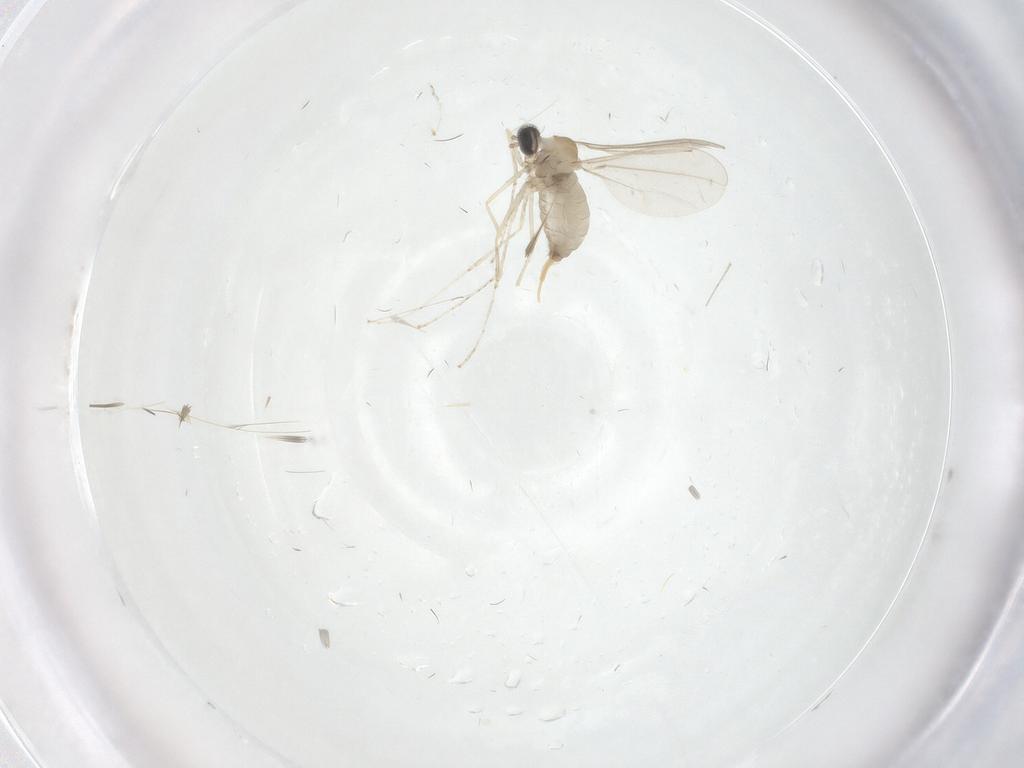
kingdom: Animalia
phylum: Arthropoda
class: Insecta
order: Diptera
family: Cecidomyiidae
